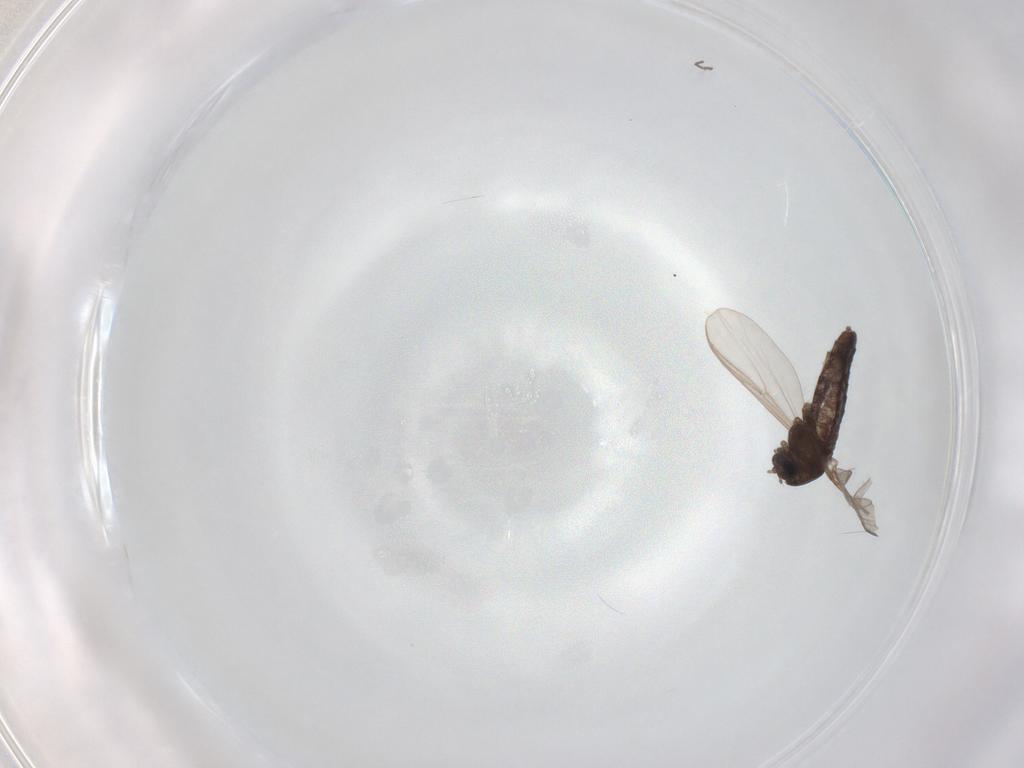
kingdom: Animalia
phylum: Arthropoda
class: Insecta
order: Diptera
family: Chironomidae
